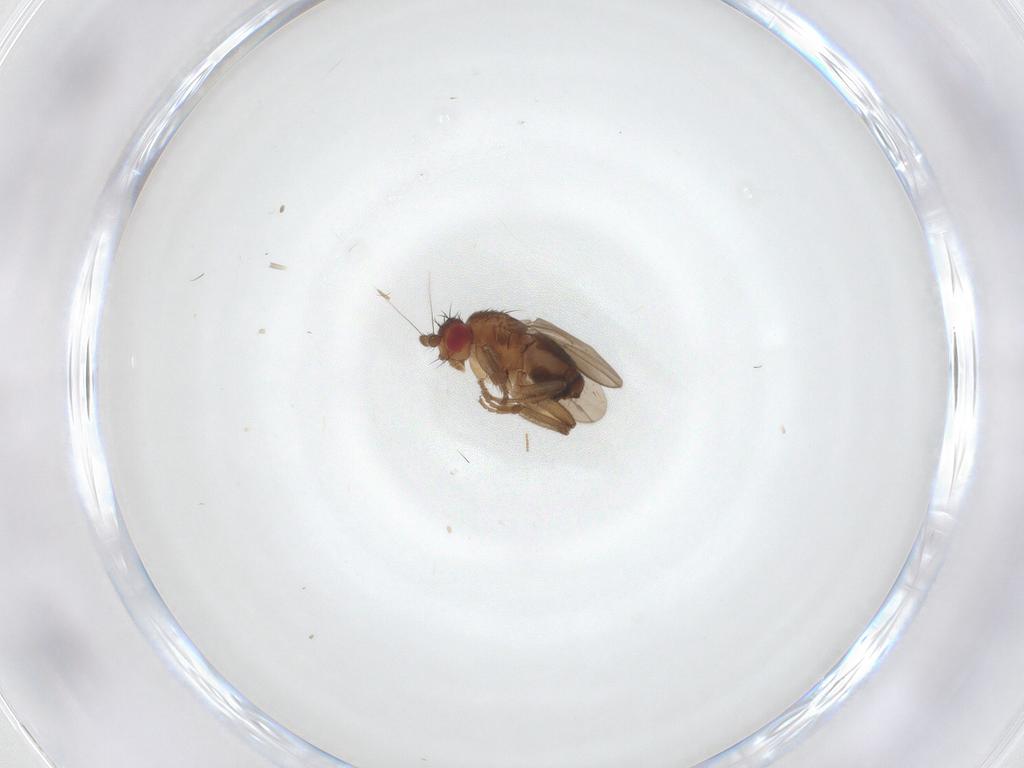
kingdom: Animalia
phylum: Arthropoda
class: Insecta
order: Diptera
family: Sphaeroceridae
